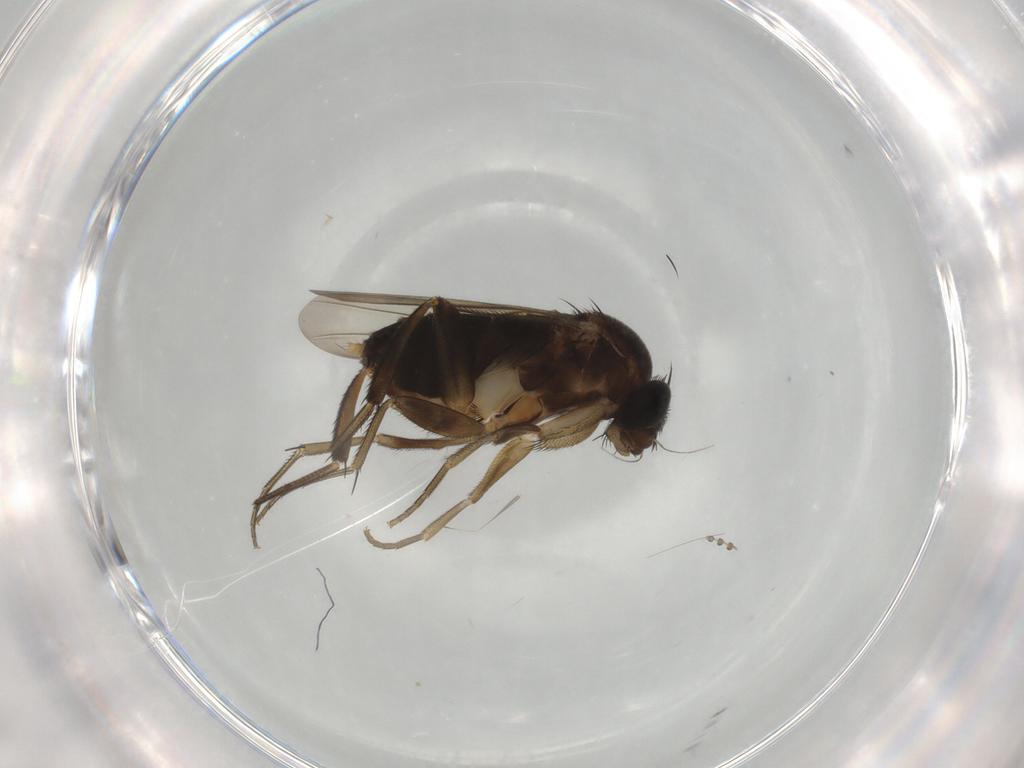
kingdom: Animalia
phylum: Arthropoda
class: Insecta
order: Diptera
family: Phoridae
